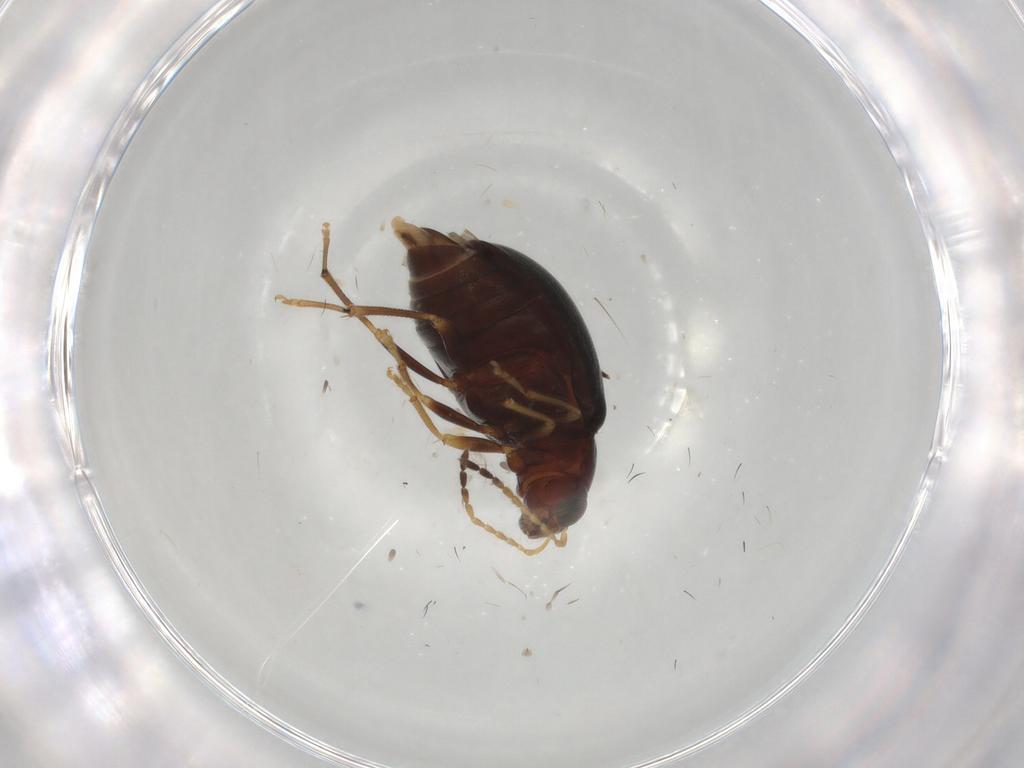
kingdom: Animalia
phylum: Arthropoda
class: Insecta
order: Coleoptera
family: Chrysomelidae
